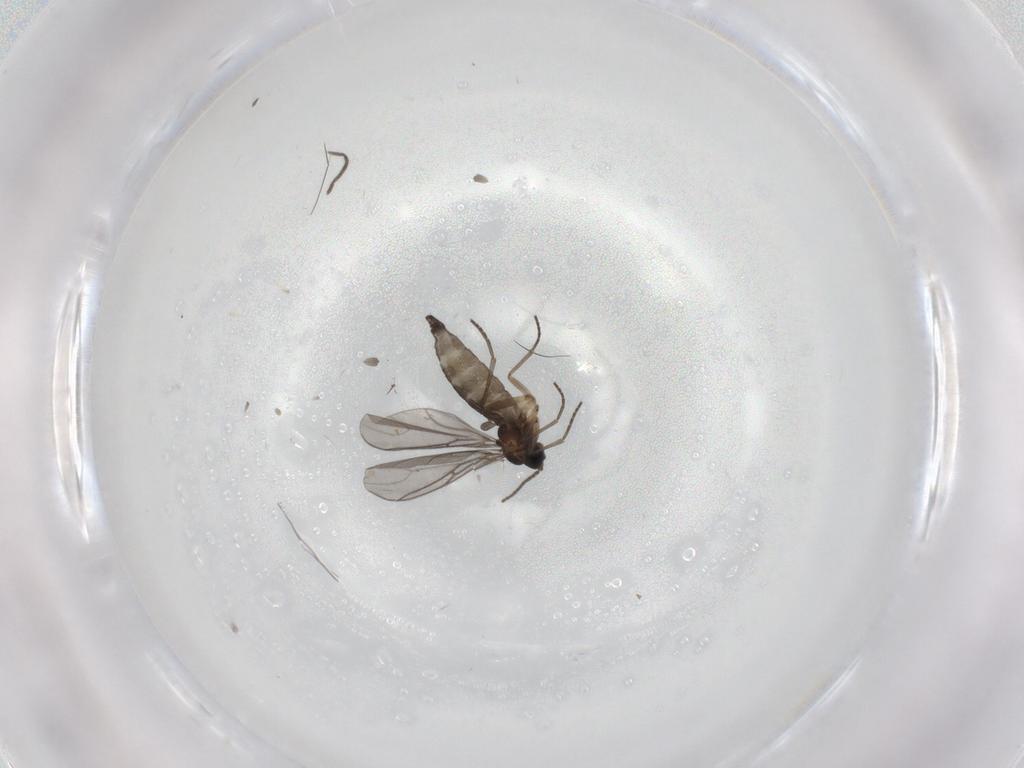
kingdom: Animalia
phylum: Arthropoda
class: Insecta
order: Diptera
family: Sciaridae
